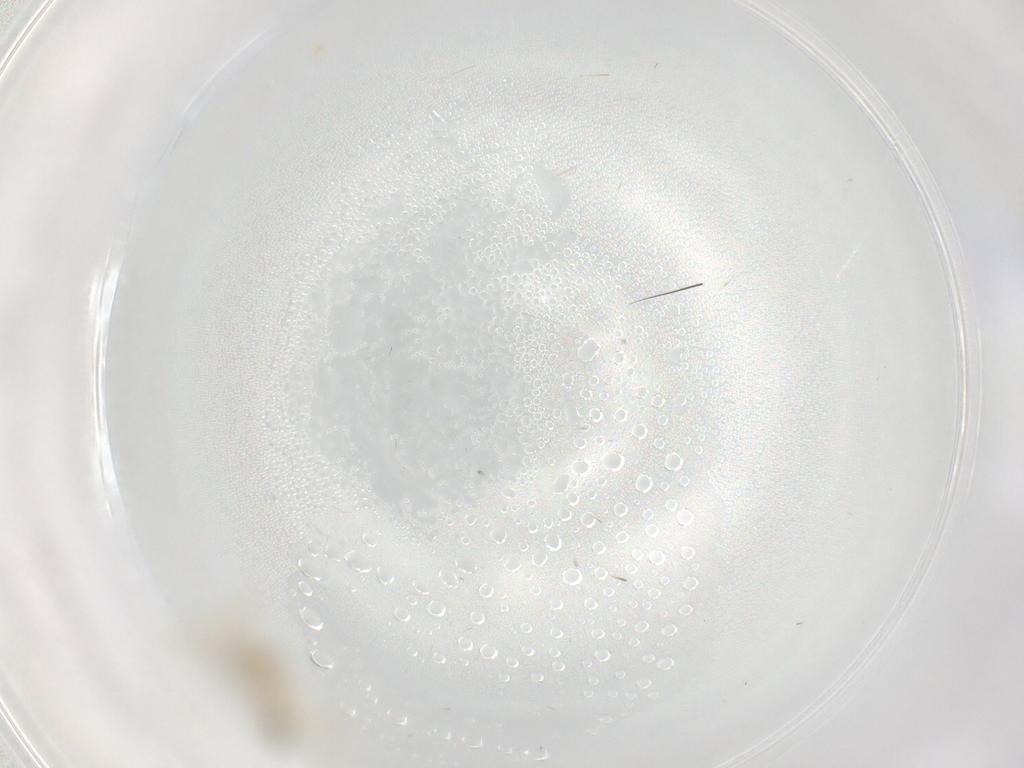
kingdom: Animalia
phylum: Arthropoda
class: Insecta
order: Diptera
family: Chironomidae
